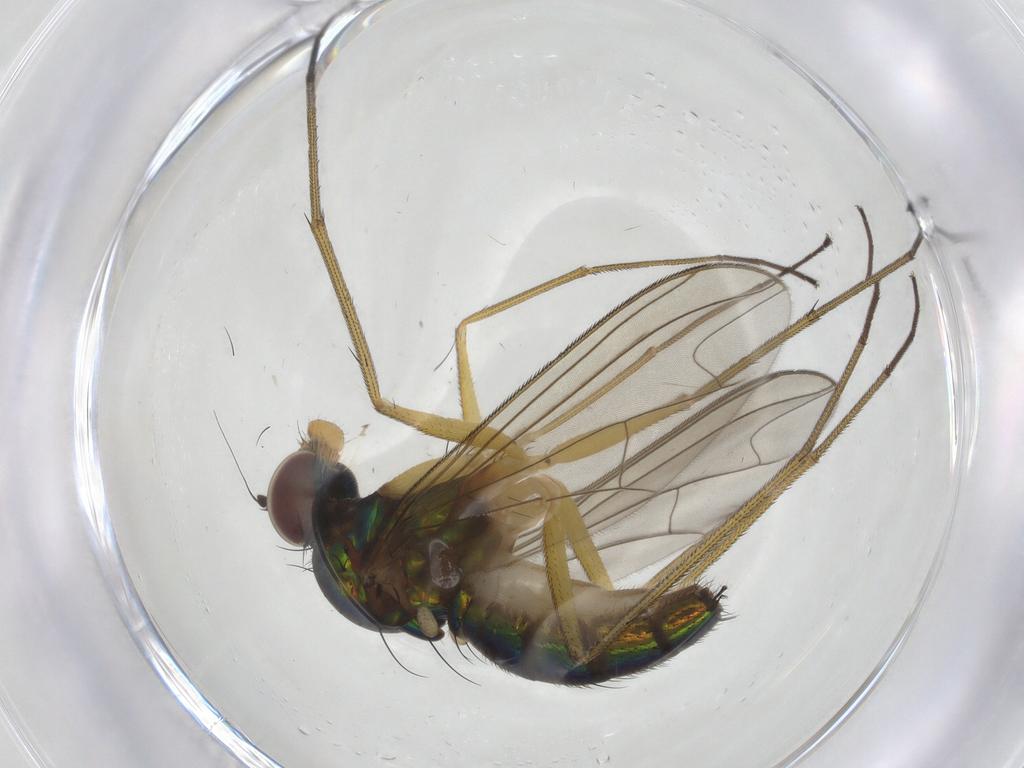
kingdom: Animalia
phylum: Arthropoda
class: Insecta
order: Diptera
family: Dolichopodidae
